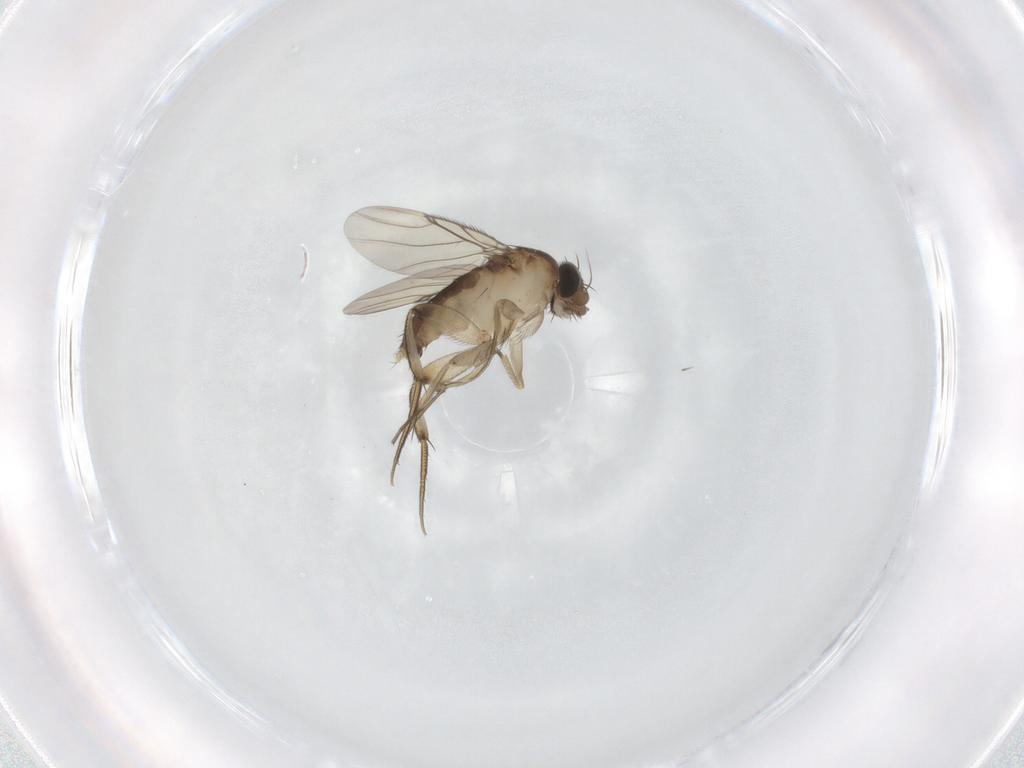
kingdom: Animalia
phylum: Arthropoda
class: Insecta
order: Diptera
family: Phoridae
